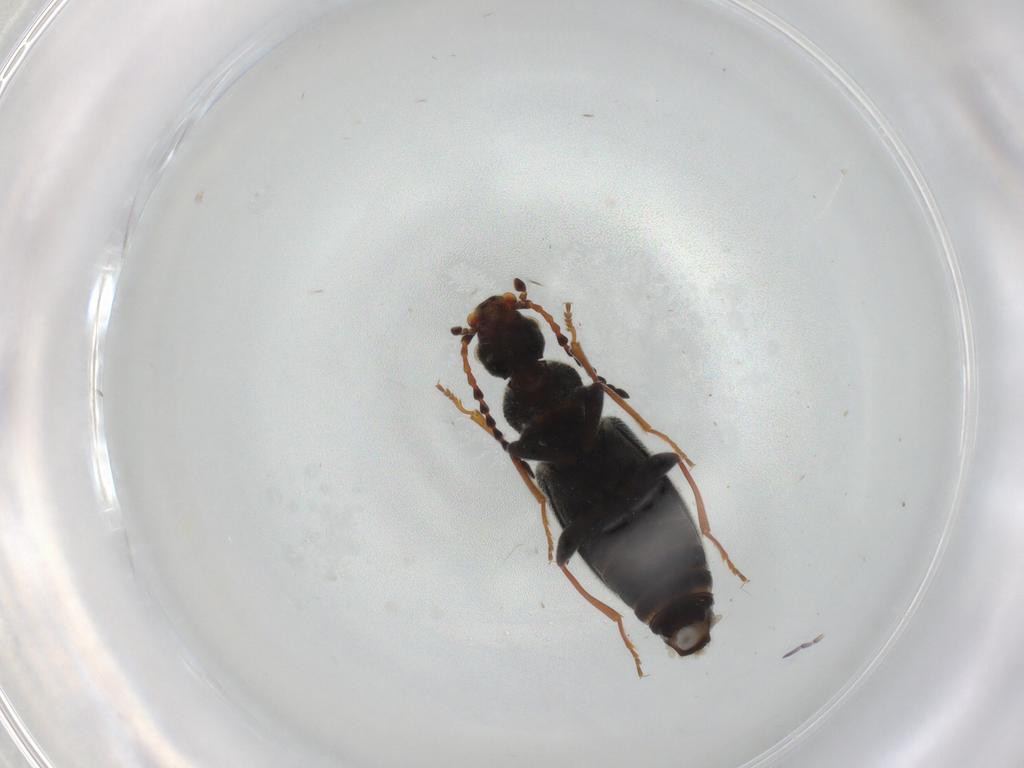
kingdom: Animalia
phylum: Arthropoda
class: Insecta
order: Coleoptera
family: Anthicidae
